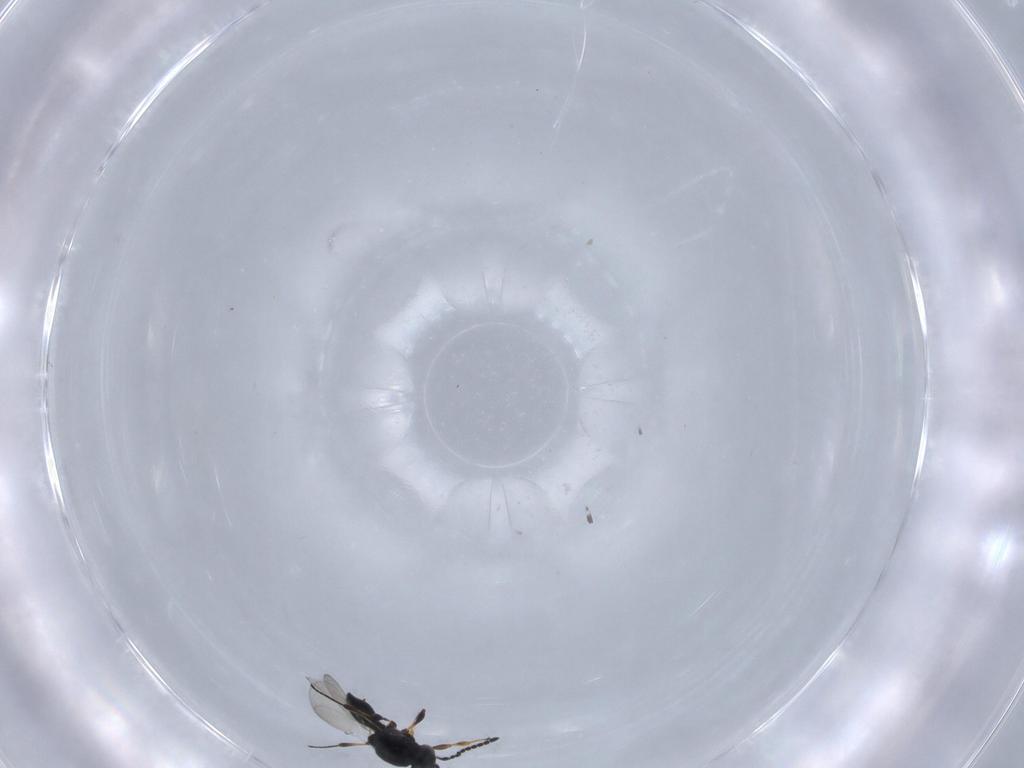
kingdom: Animalia
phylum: Arthropoda
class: Insecta
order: Hymenoptera
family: Platygastridae
